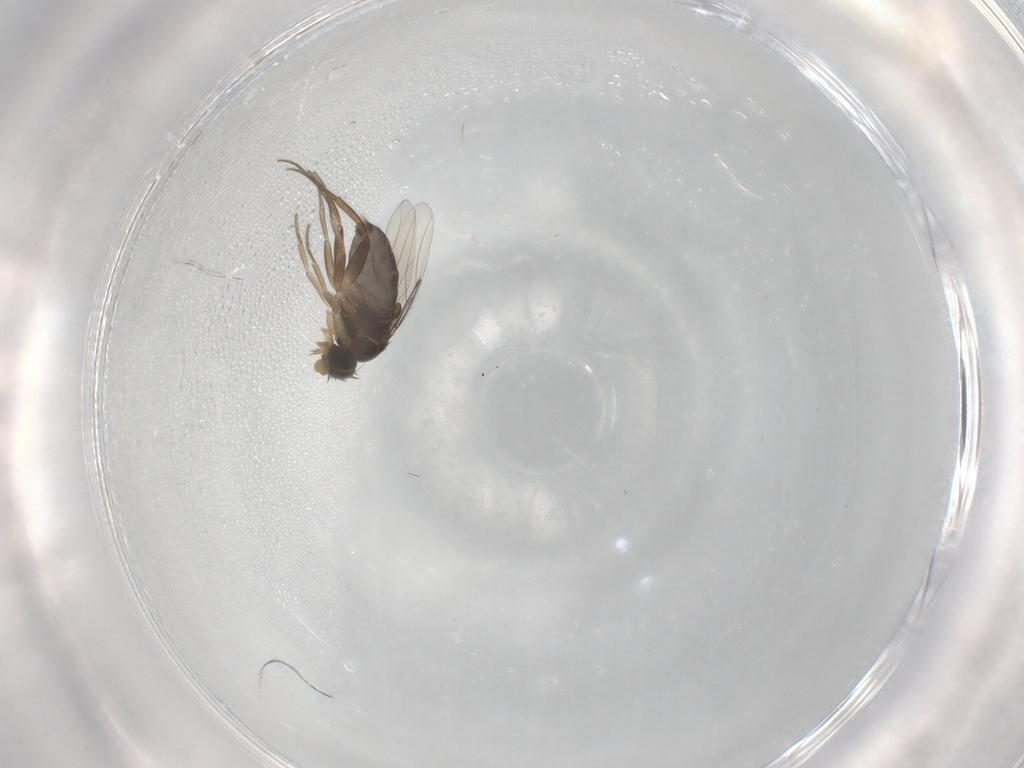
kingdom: Animalia
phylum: Arthropoda
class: Insecta
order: Diptera
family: Phoridae
